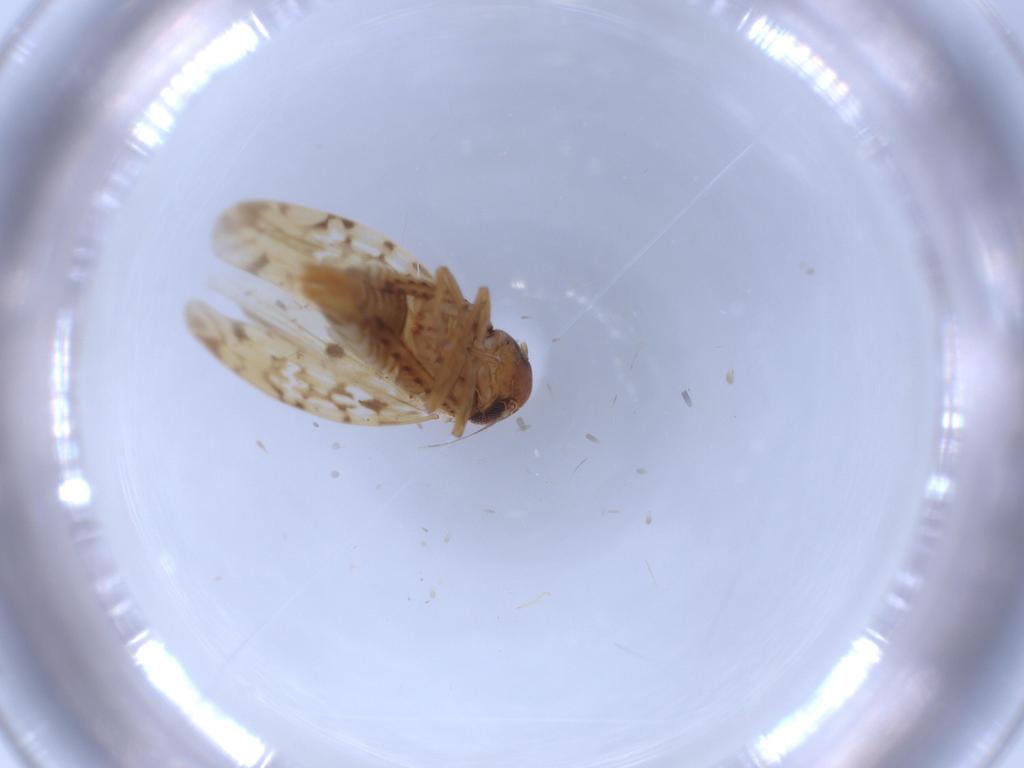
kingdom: Animalia
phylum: Arthropoda
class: Insecta
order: Hemiptera
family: Cicadellidae
